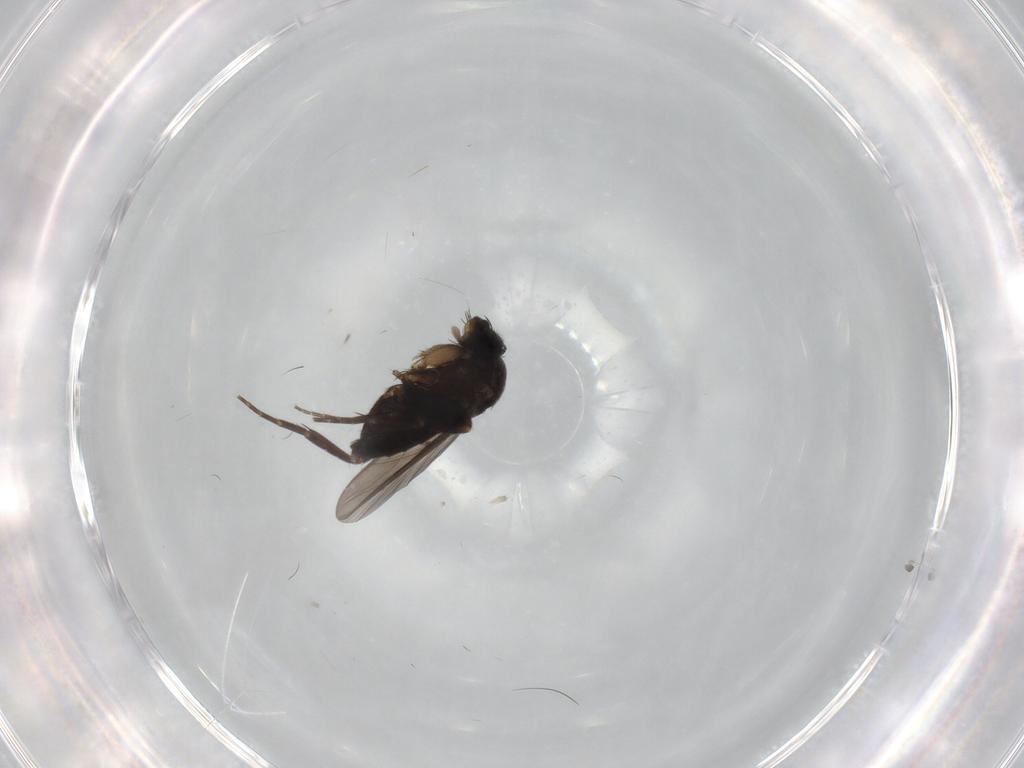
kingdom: Animalia
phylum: Arthropoda
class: Insecta
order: Diptera
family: Phoridae
